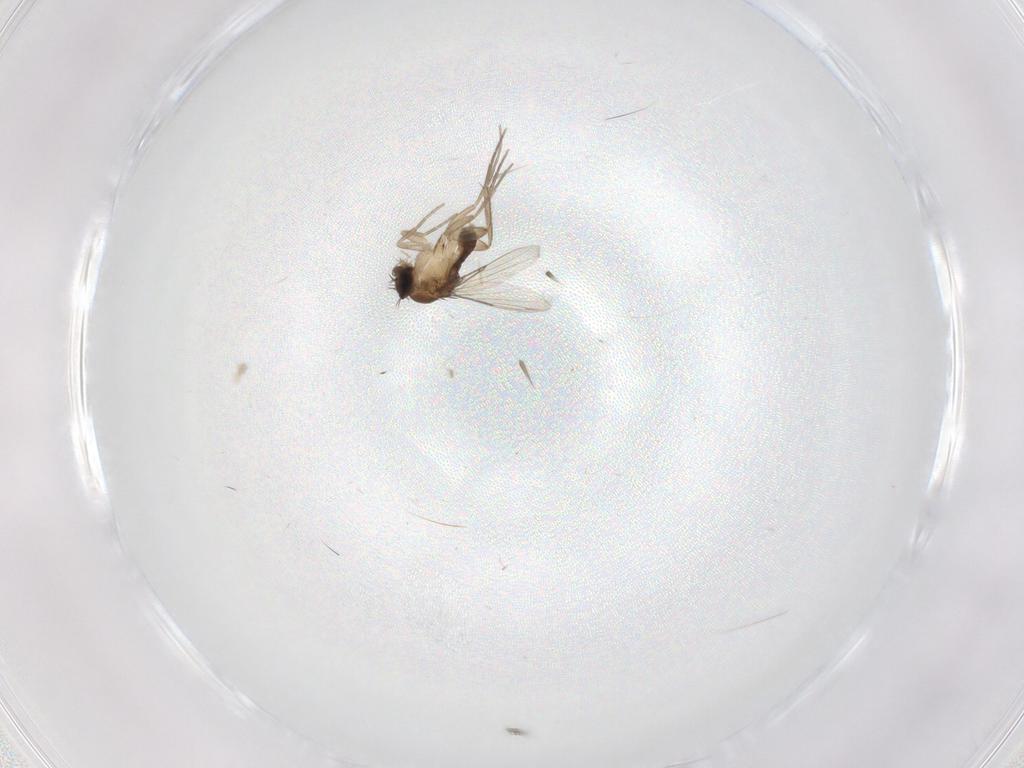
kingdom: Animalia
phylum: Arthropoda
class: Insecta
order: Diptera
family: Phoridae
